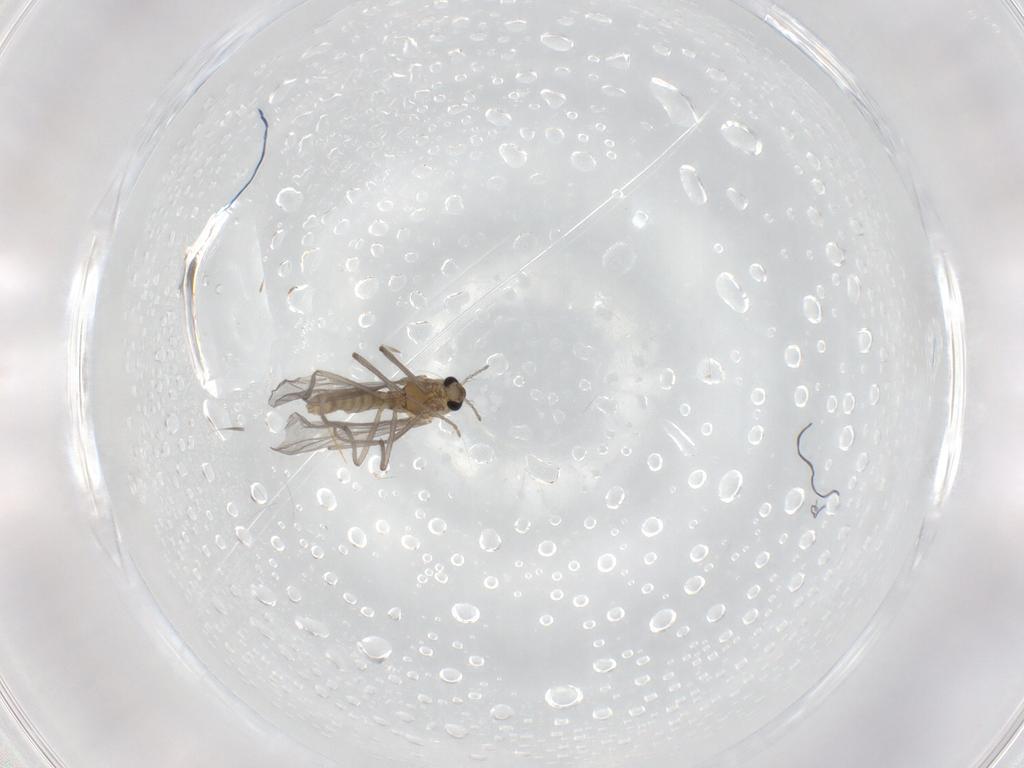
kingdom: Animalia
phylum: Arthropoda
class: Insecta
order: Diptera
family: Chironomidae
